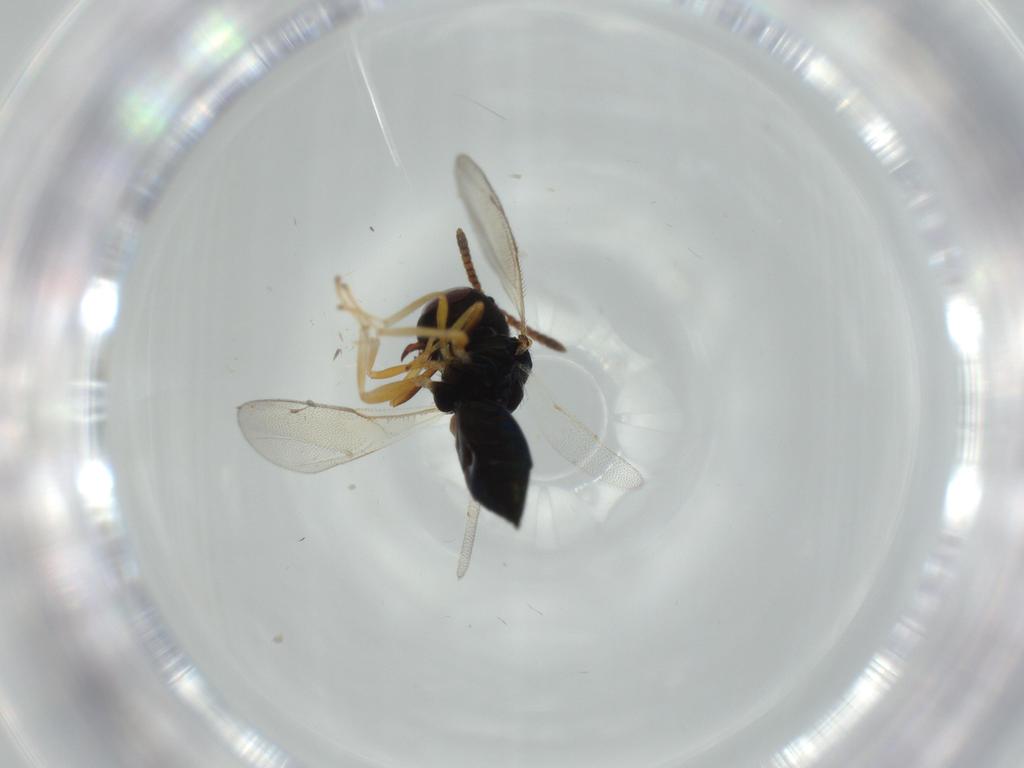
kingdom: Animalia
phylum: Arthropoda
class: Insecta
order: Hymenoptera
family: Pteromalidae
